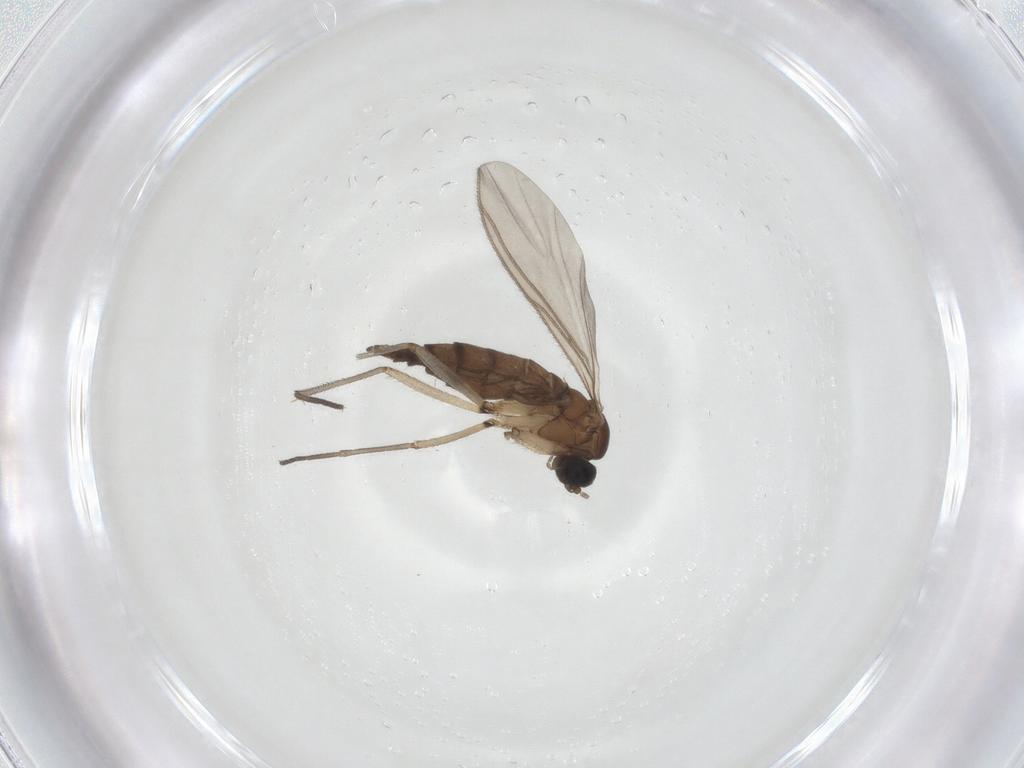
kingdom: Animalia
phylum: Arthropoda
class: Insecta
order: Diptera
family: Sciaridae
